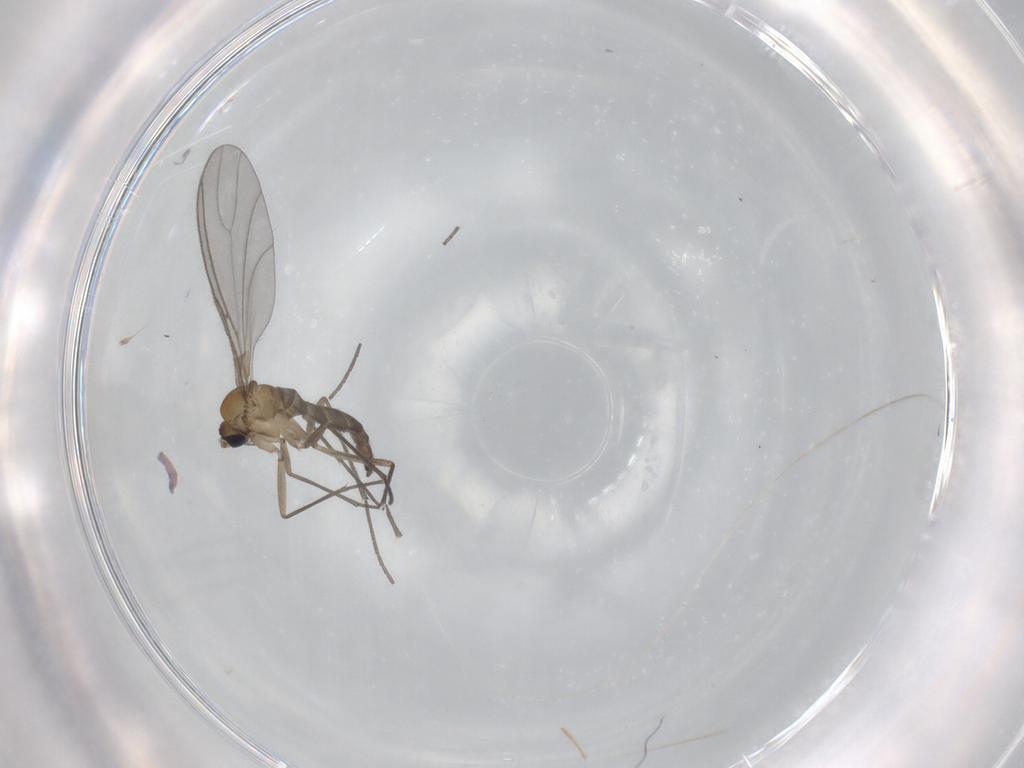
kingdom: Animalia
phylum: Arthropoda
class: Insecta
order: Diptera
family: Sciaridae
